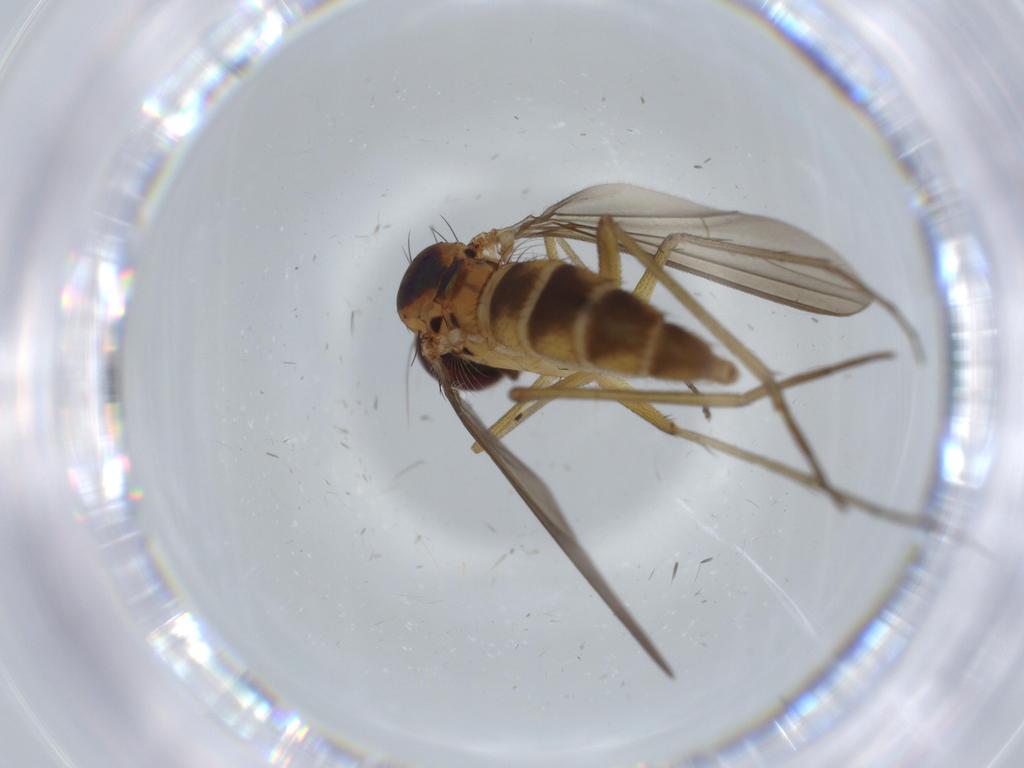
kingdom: Animalia
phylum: Arthropoda
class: Insecta
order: Diptera
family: Dolichopodidae
